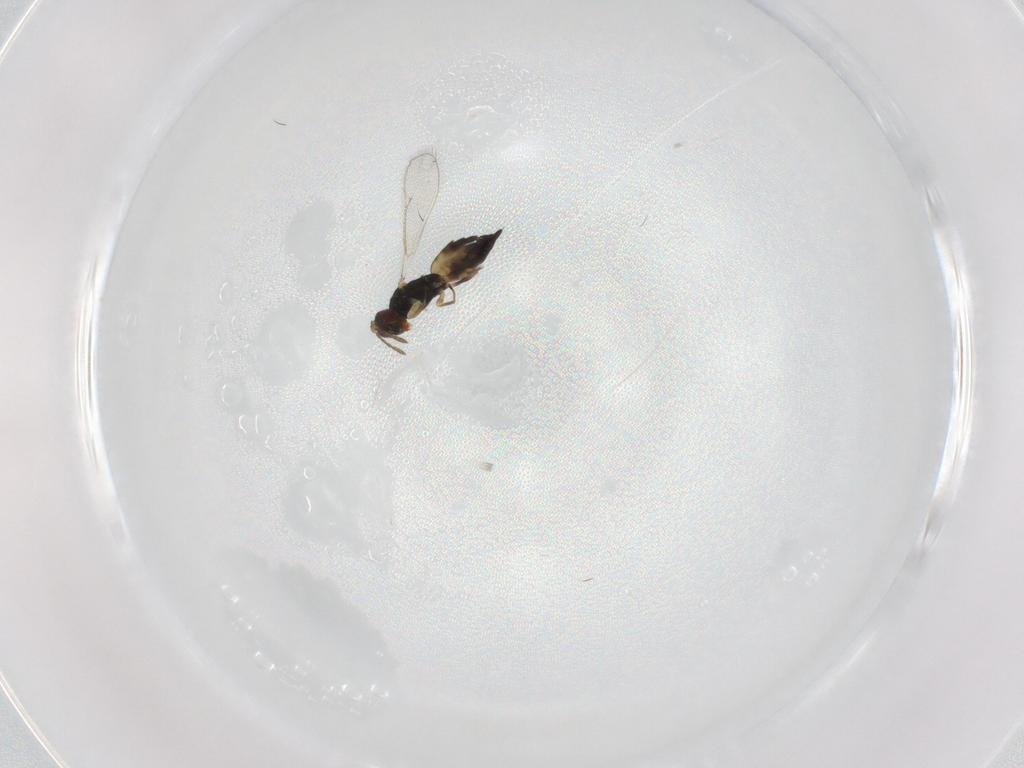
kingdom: Animalia
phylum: Arthropoda
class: Insecta
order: Hymenoptera
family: Eulophidae
